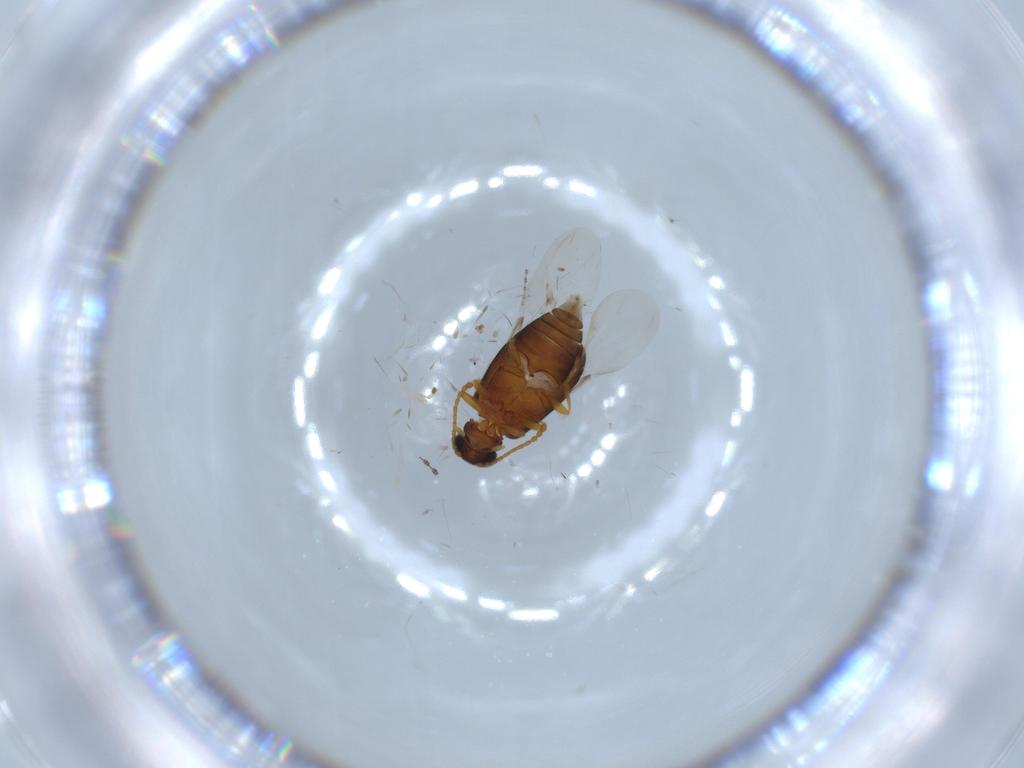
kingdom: Animalia
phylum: Arthropoda
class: Insecta
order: Coleoptera
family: Aderidae
